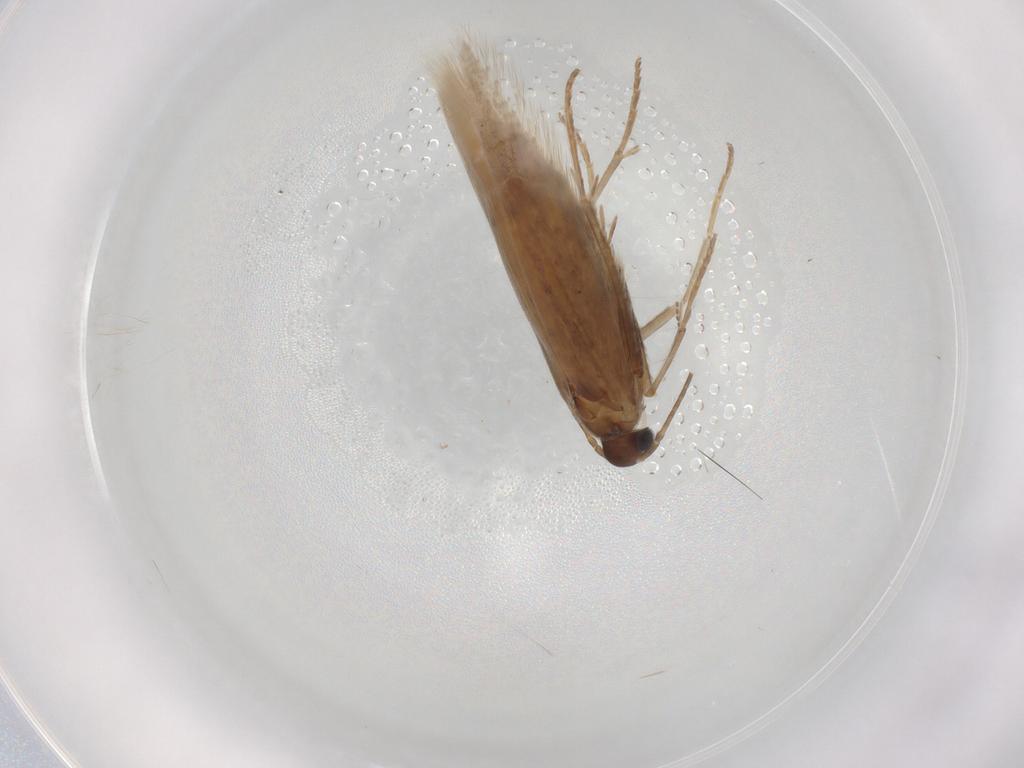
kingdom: Animalia
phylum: Arthropoda
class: Insecta
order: Lepidoptera
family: Coleophoridae
